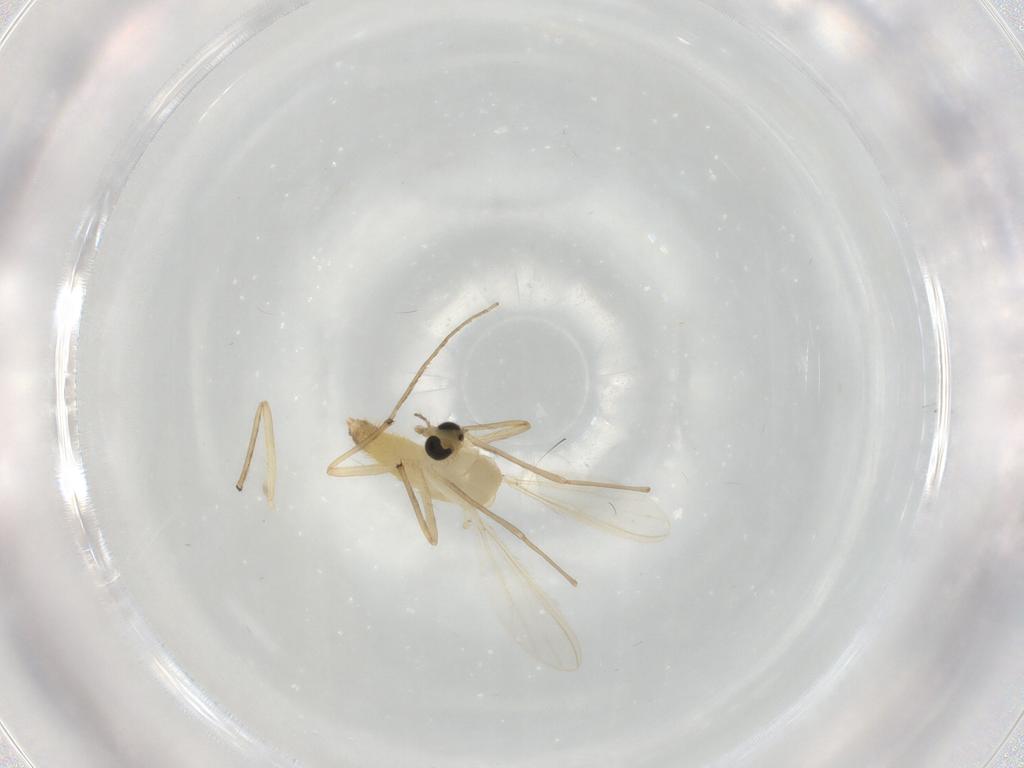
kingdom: Animalia
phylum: Arthropoda
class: Insecta
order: Diptera
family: Chironomidae
